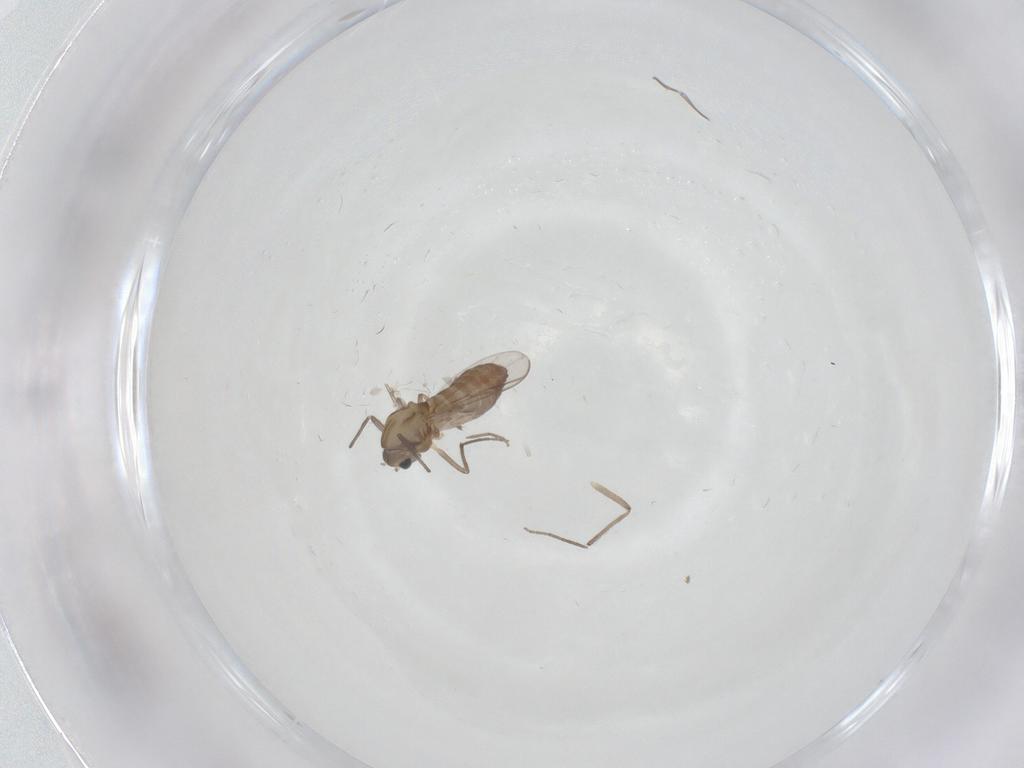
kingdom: Animalia
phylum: Arthropoda
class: Insecta
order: Diptera
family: Chironomidae
